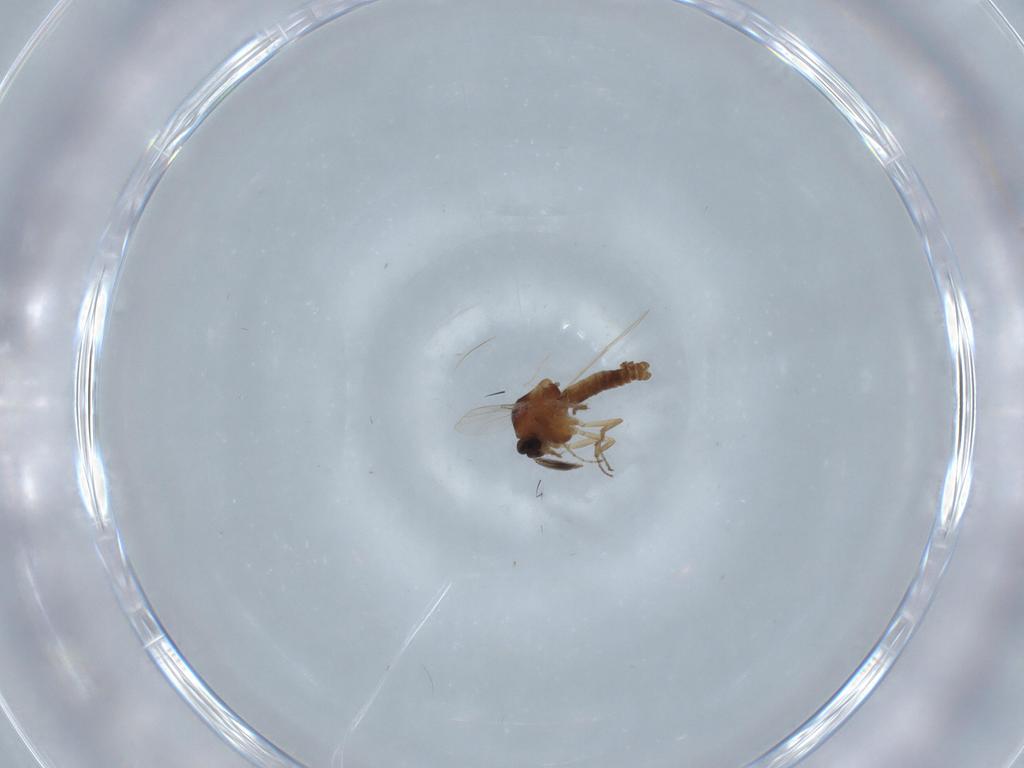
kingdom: Animalia
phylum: Arthropoda
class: Insecta
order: Diptera
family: Ceratopogonidae
